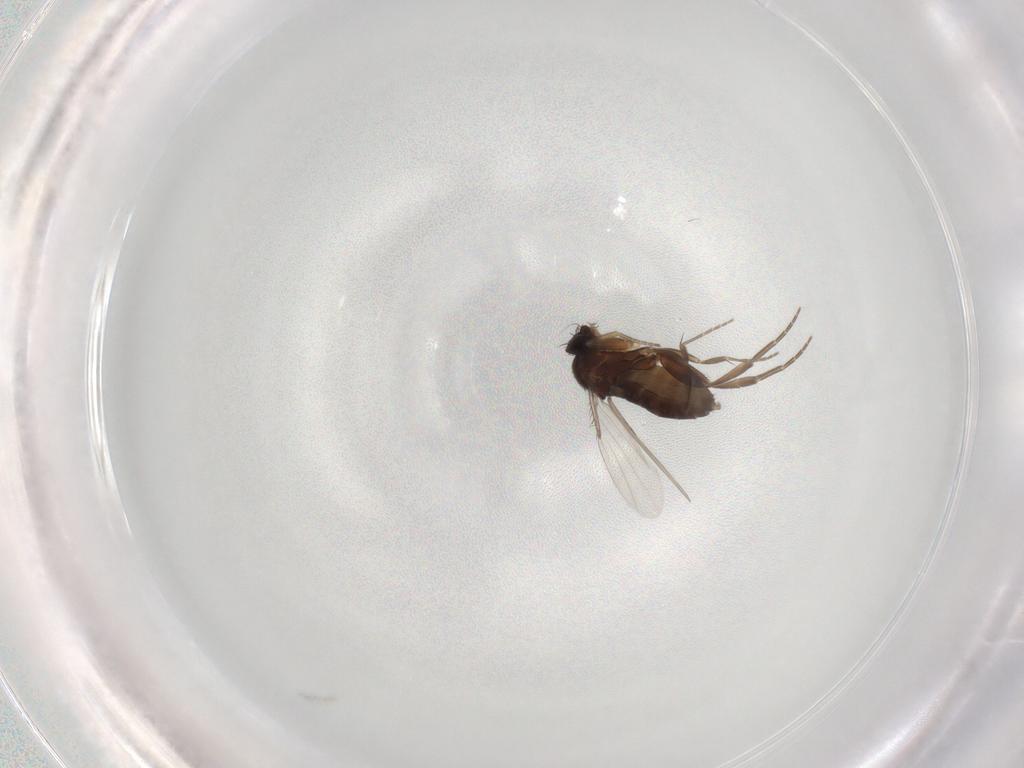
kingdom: Animalia
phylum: Arthropoda
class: Insecta
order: Diptera
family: Phoridae
